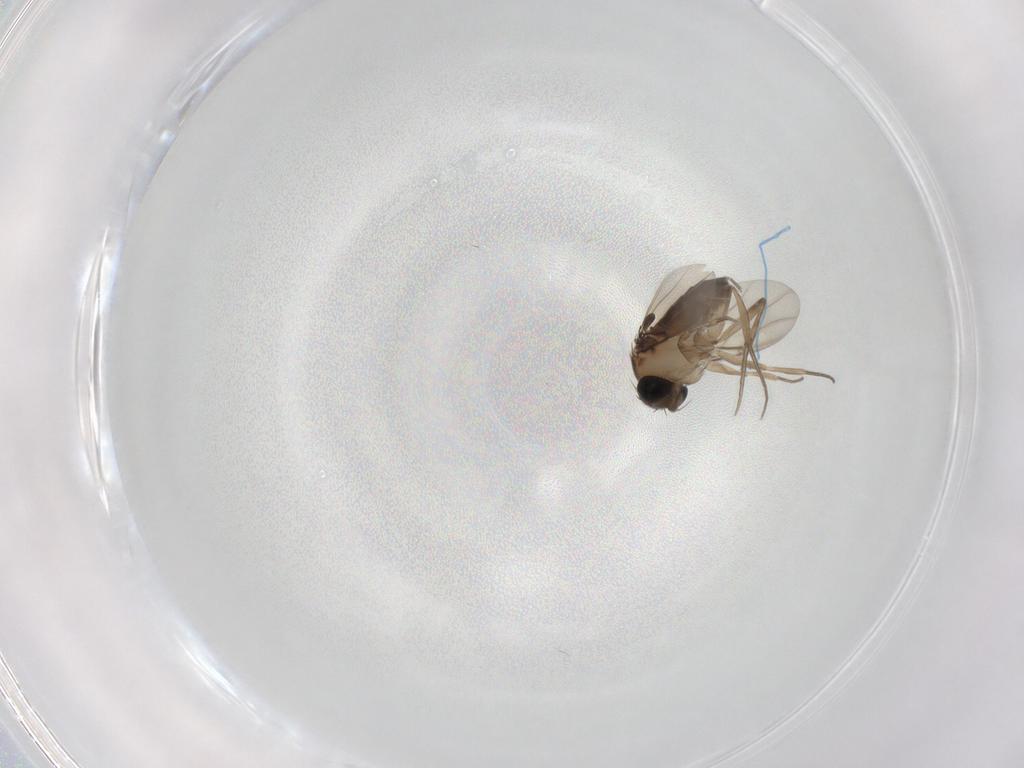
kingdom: Animalia
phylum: Arthropoda
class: Insecta
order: Diptera
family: Phoridae
